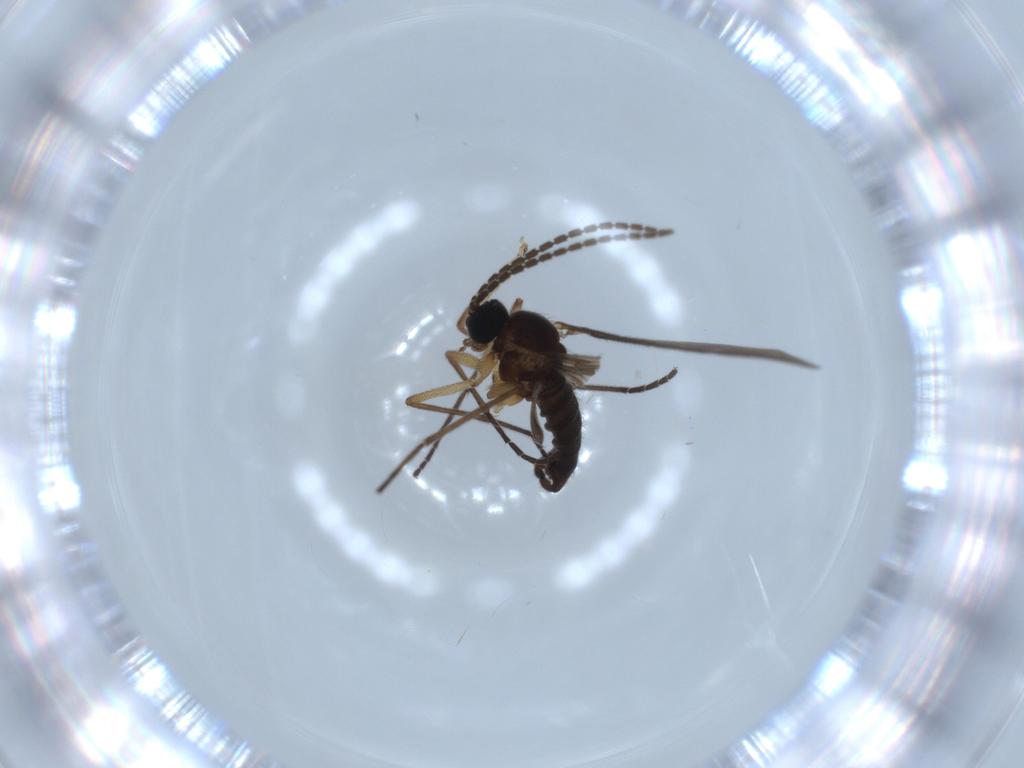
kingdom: Animalia
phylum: Arthropoda
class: Insecta
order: Diptera
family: Sciaridae
